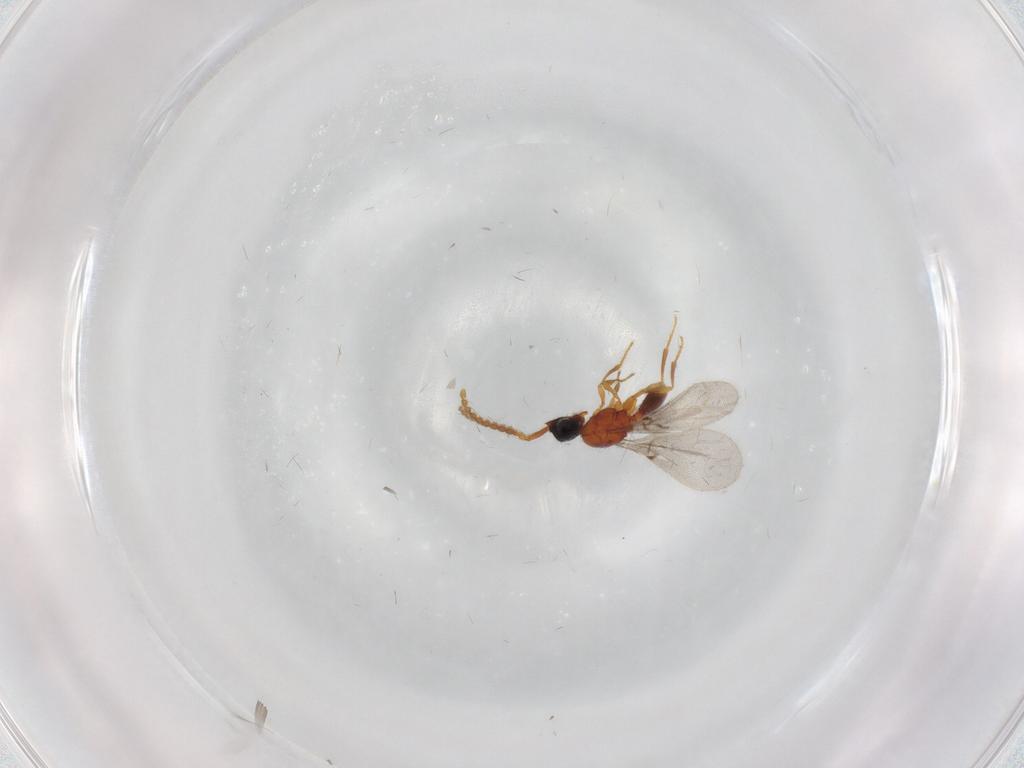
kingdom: Animalia
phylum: Arthropoda
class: Insecta
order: Hymenoptera
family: Diapriidae
